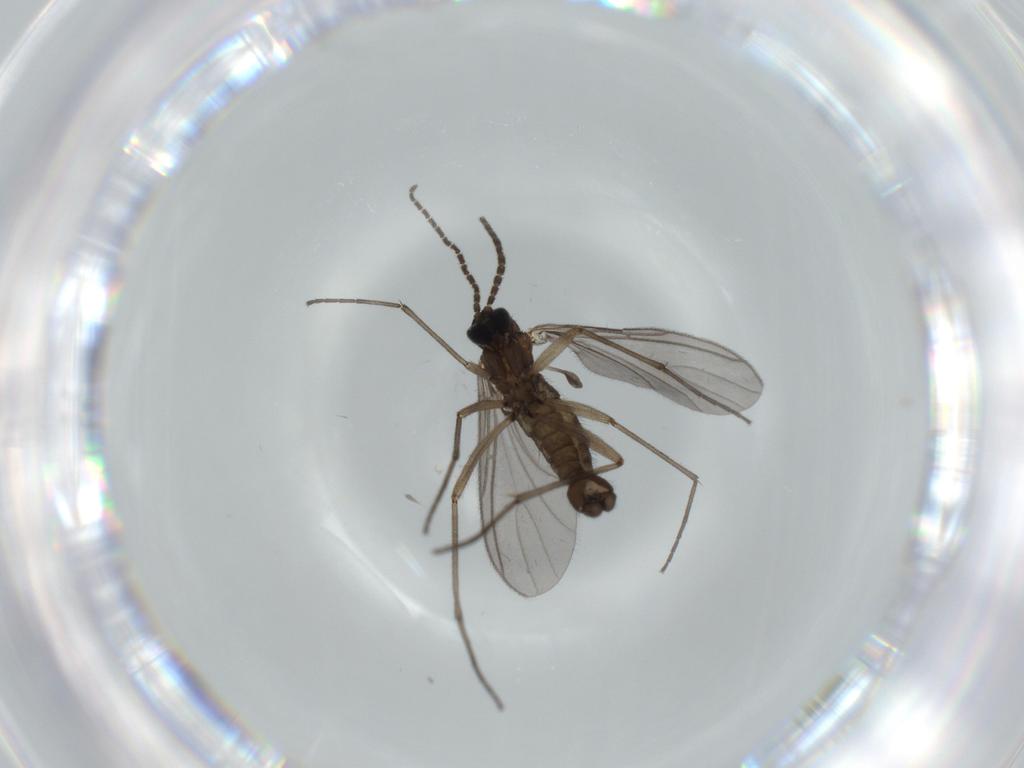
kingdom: Animalia
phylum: Arthropoda
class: Insecta
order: Diptera
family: Sciaridae
